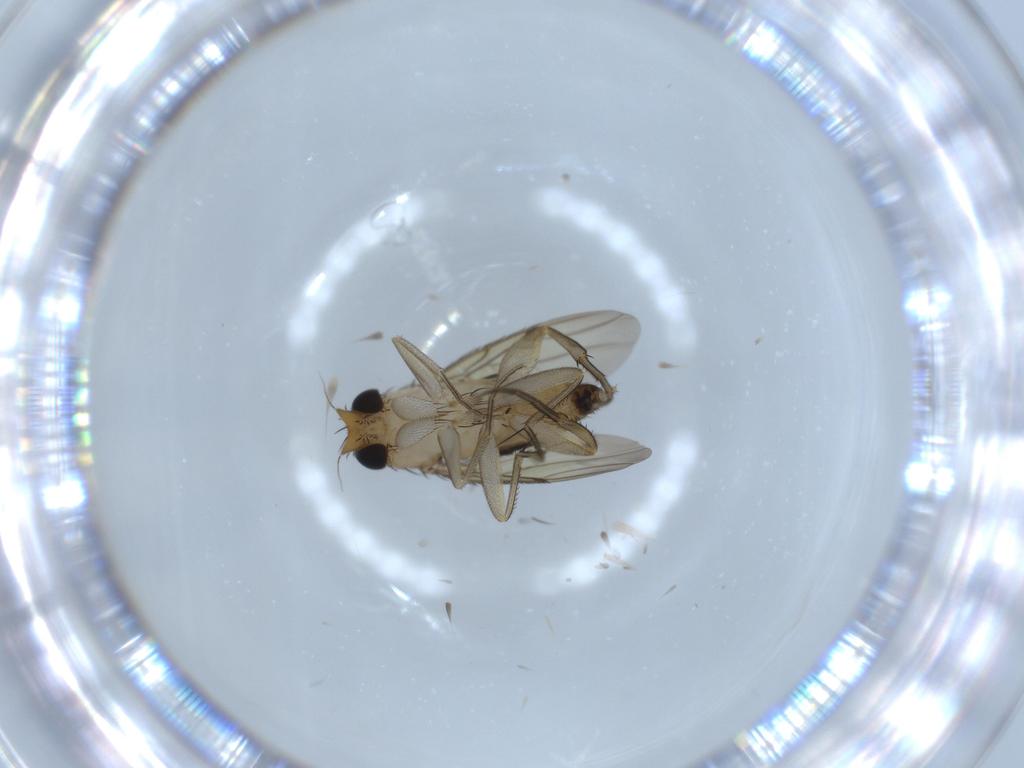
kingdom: Animalia
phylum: Arthropoda
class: Insecta
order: Diptera
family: Phoridae
